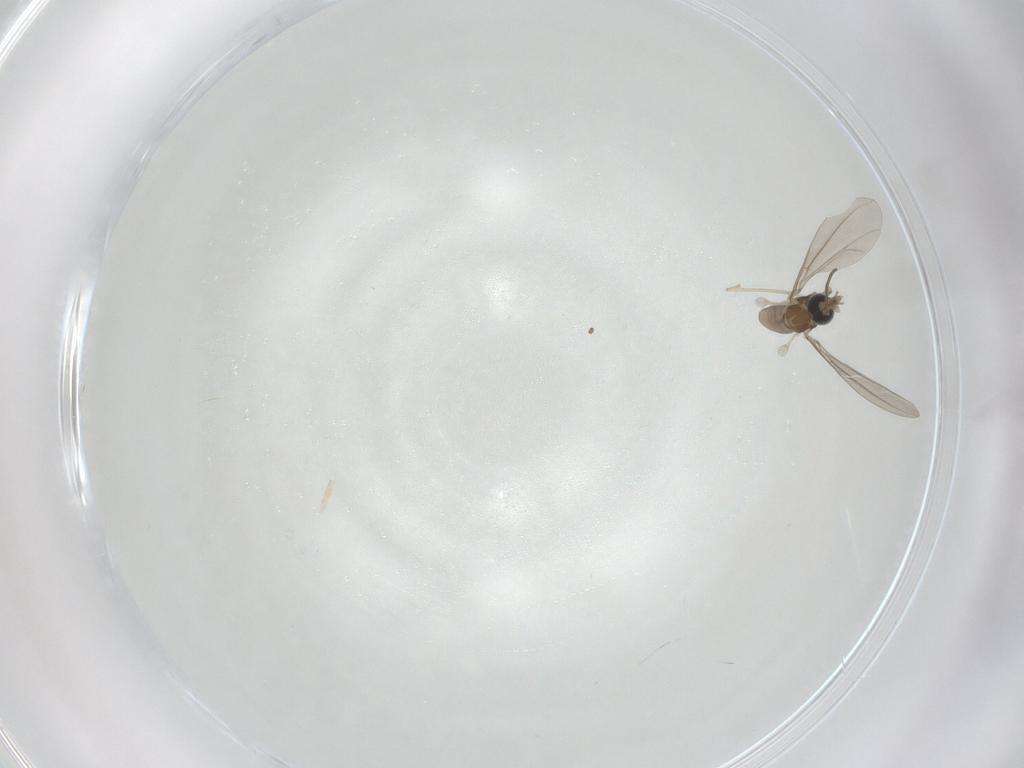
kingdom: Animalia
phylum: Arthropoda
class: Insecta
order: Diptera
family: Cecidomyiidae
